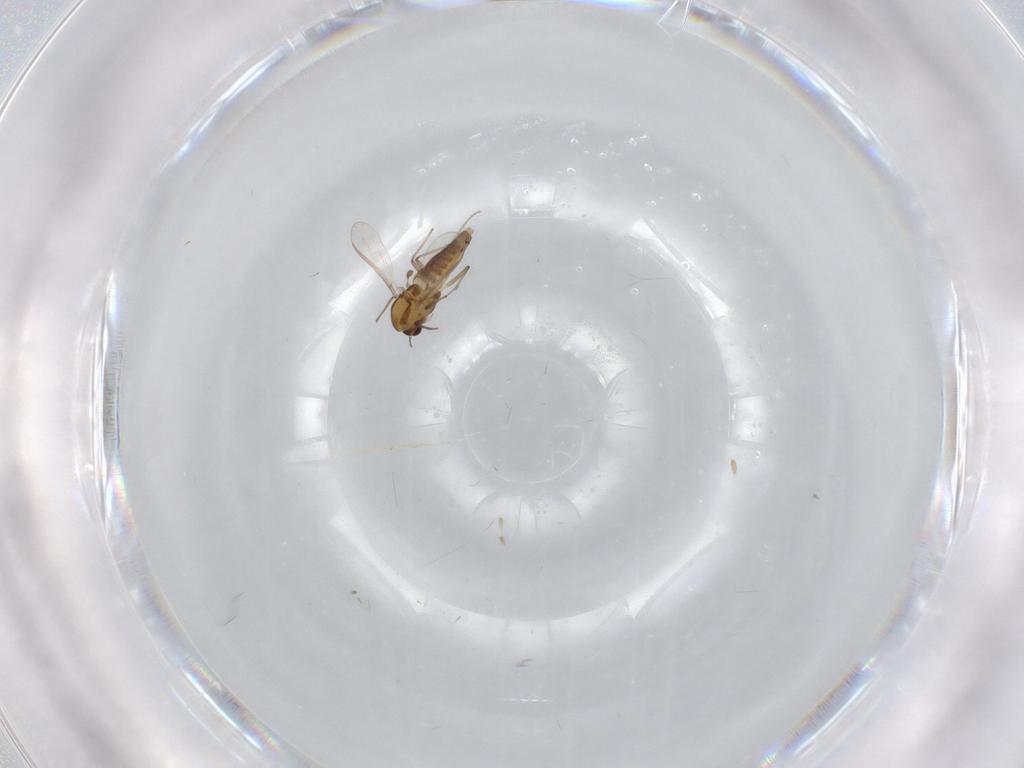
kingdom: Animalia
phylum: Arthropoda
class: Insecta
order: Diptera
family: Chironomidae
